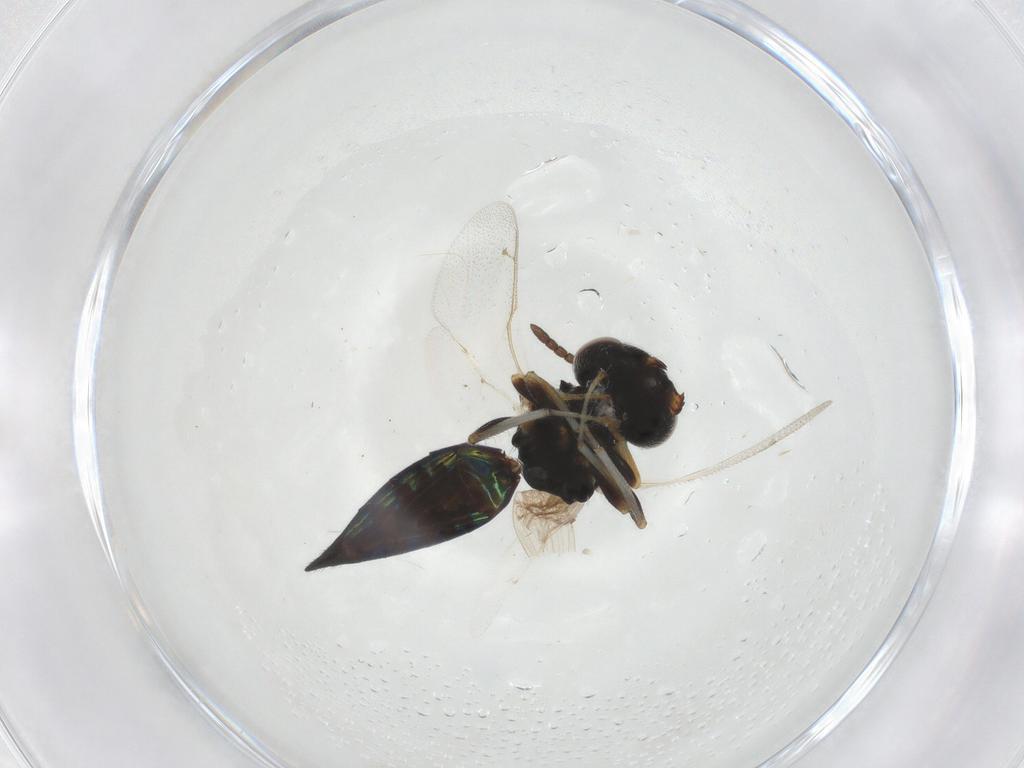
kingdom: Animalia
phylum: Arthropoda
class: Insecta
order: Hymenoptera
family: Pteromalidae
